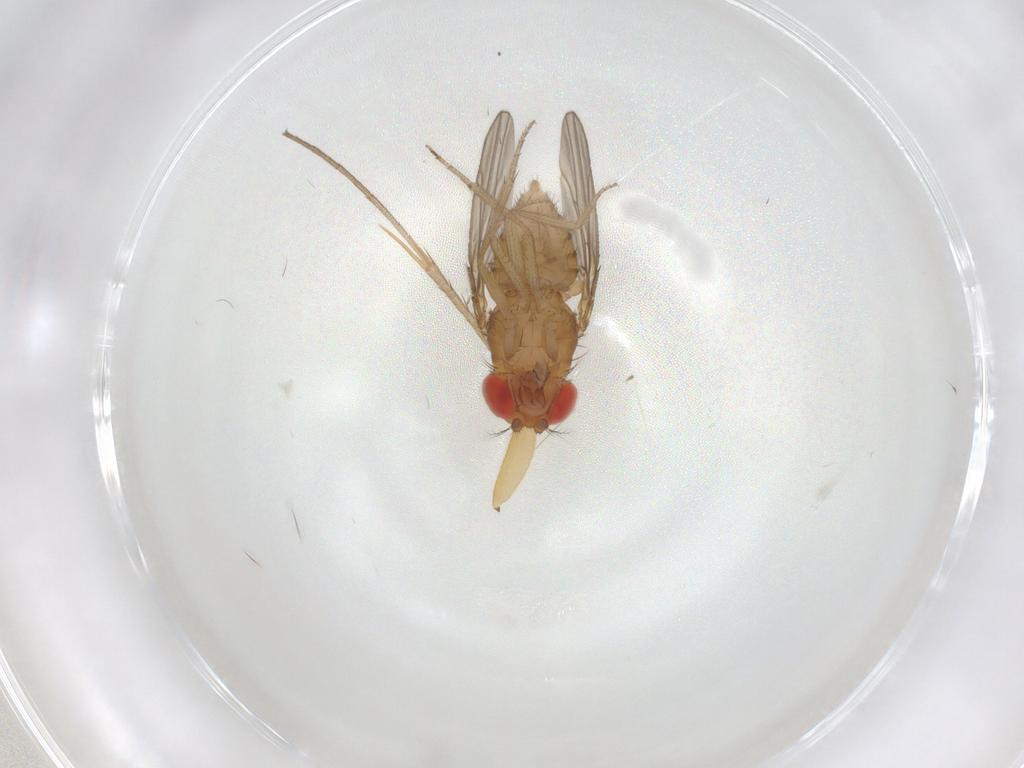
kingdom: Animalia
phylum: Arthropoda
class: Insecta
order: Diptera
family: Drosophilidae
